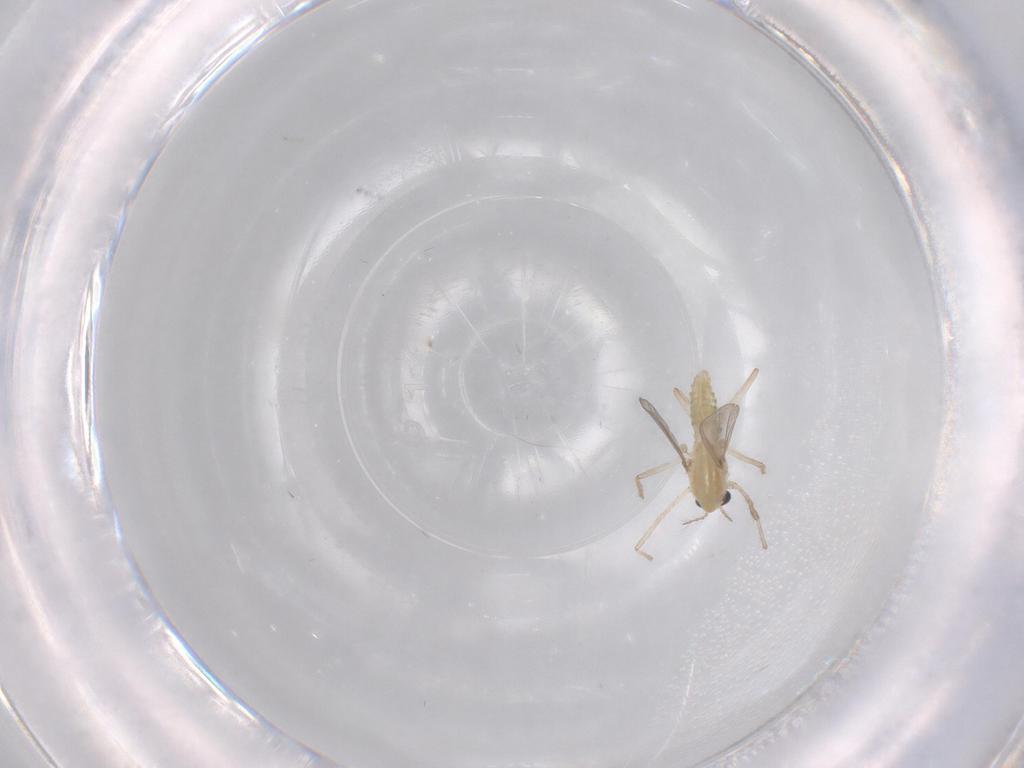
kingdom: Animalia
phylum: Arthropoda
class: Insecta
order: Diptera
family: Chironomidae
